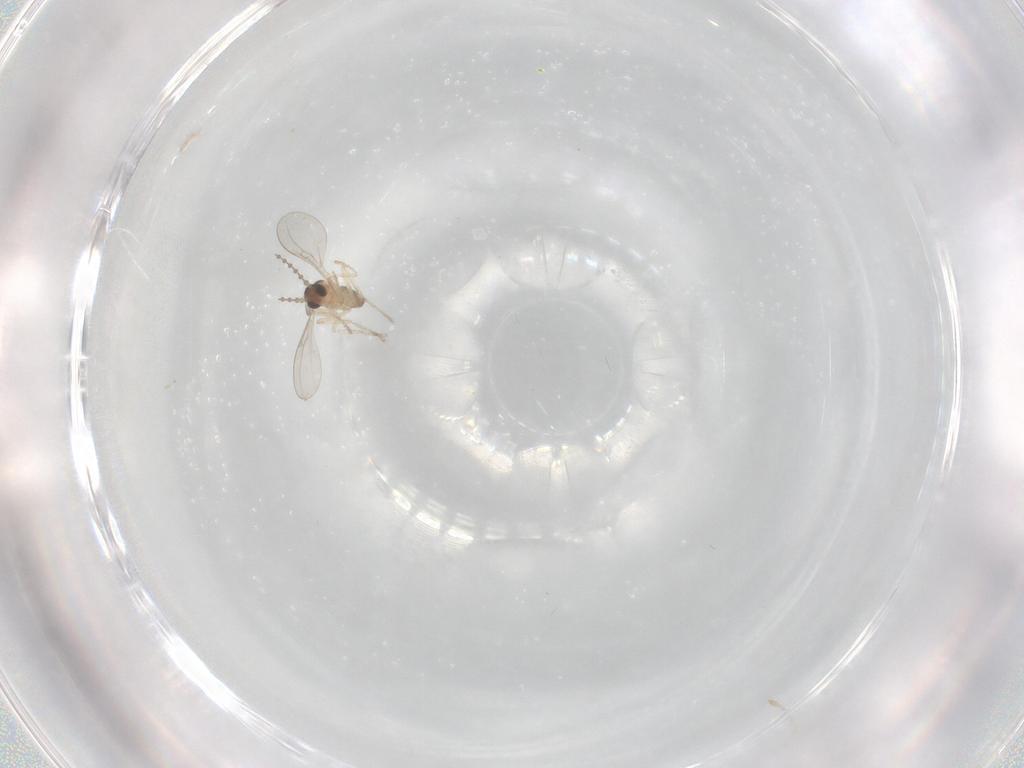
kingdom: Animalia
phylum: Arthropoda
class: Insecta
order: Diptera
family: Cecidomyiidae
